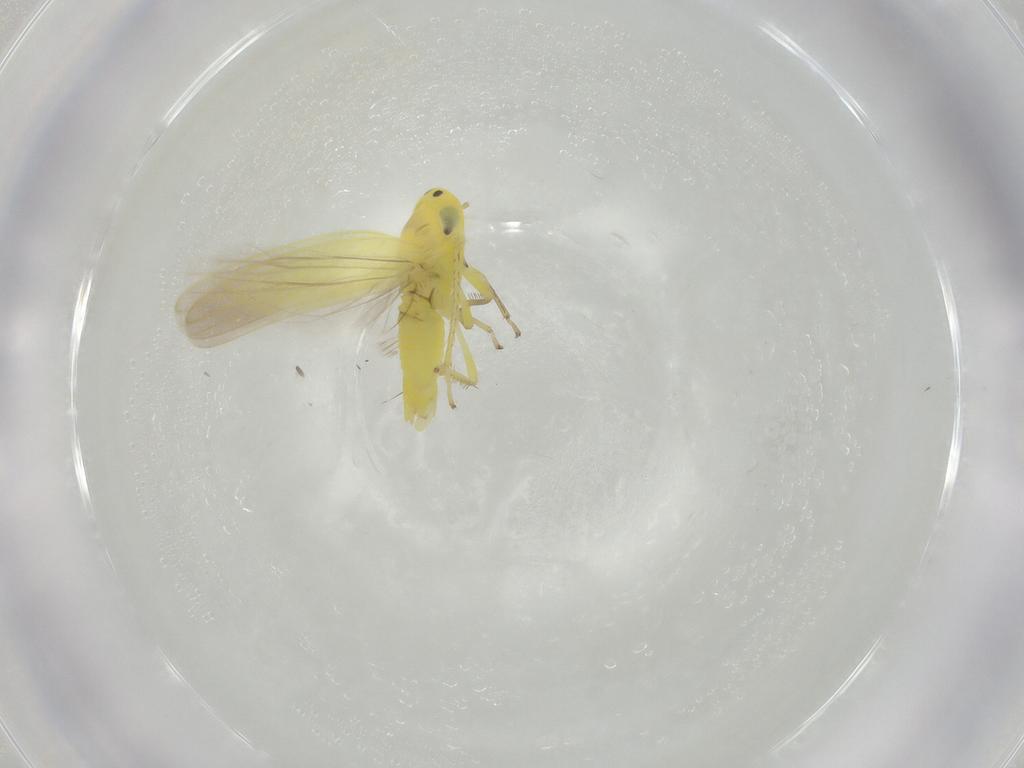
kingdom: Animalia
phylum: Arthropoda
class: Insecta
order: Hemiptera
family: Cicadellidae
